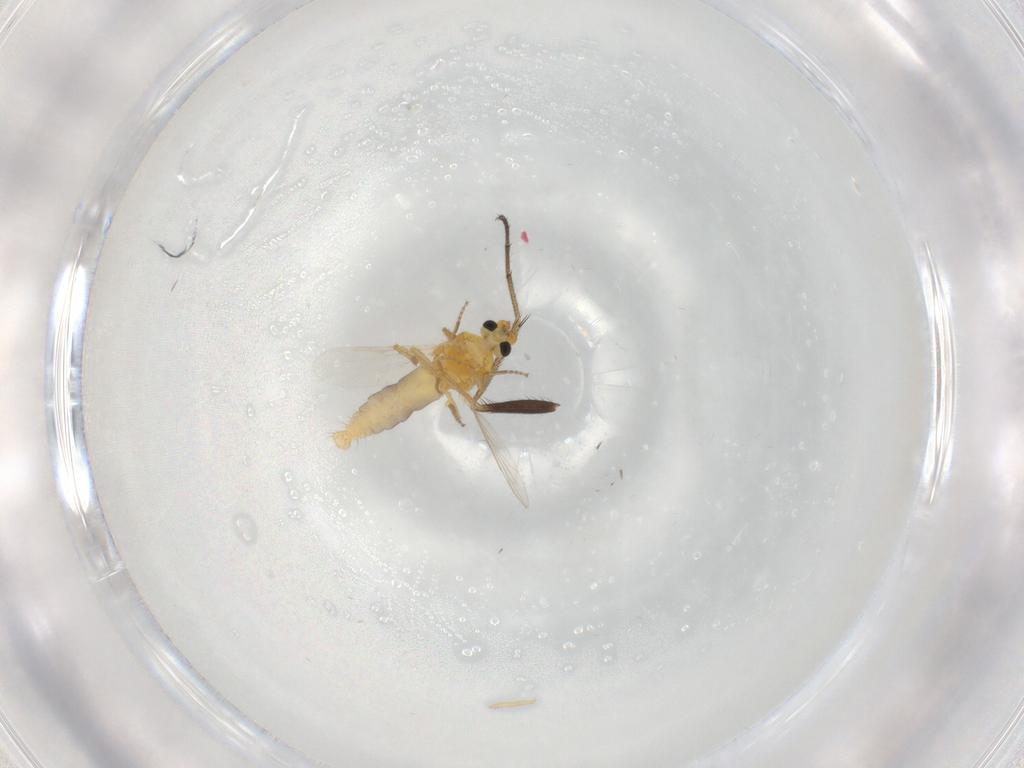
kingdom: Animalia
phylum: Arthropoda
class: Insecta
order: Diptera
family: Dolichopodidae
